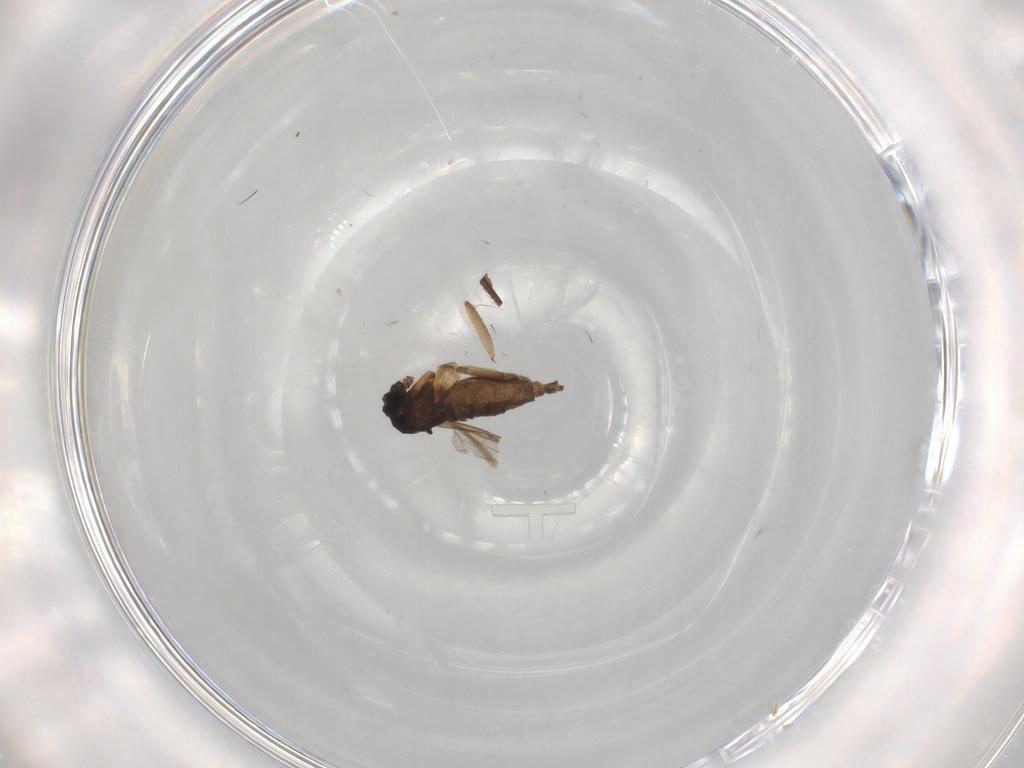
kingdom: Animalia
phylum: Arthropoda
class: Insecta
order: Diptera
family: Sciaridae
